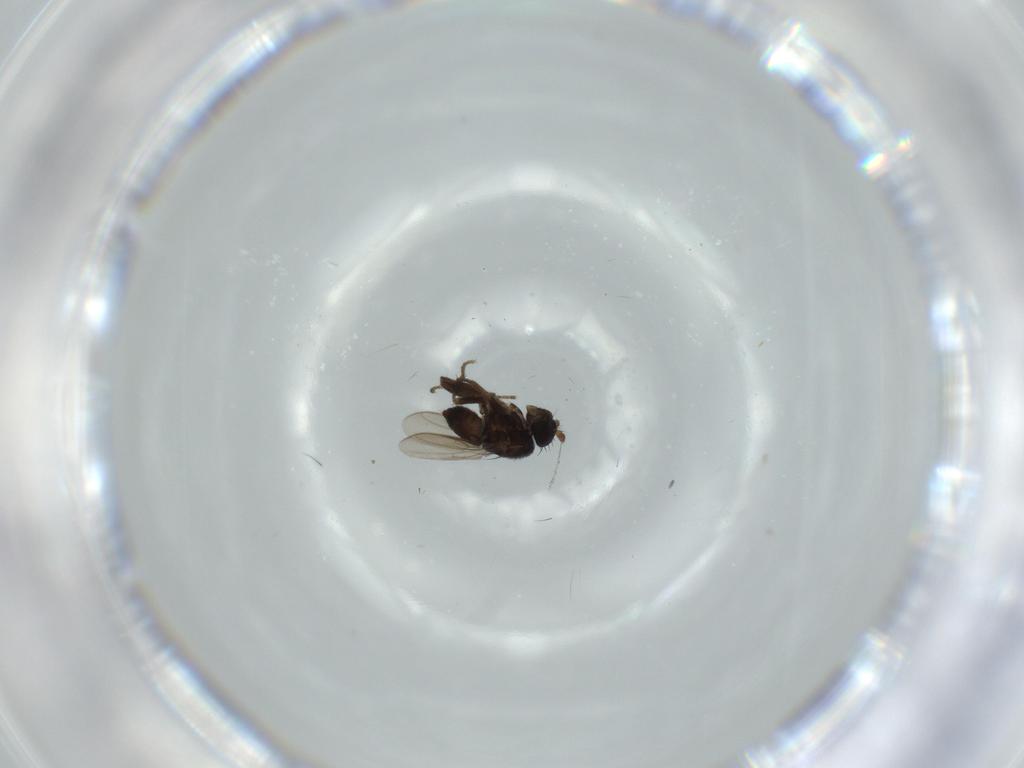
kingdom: Animalia
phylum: Arthropoda
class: Insecta
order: Diptera
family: Sphaeroceridae
